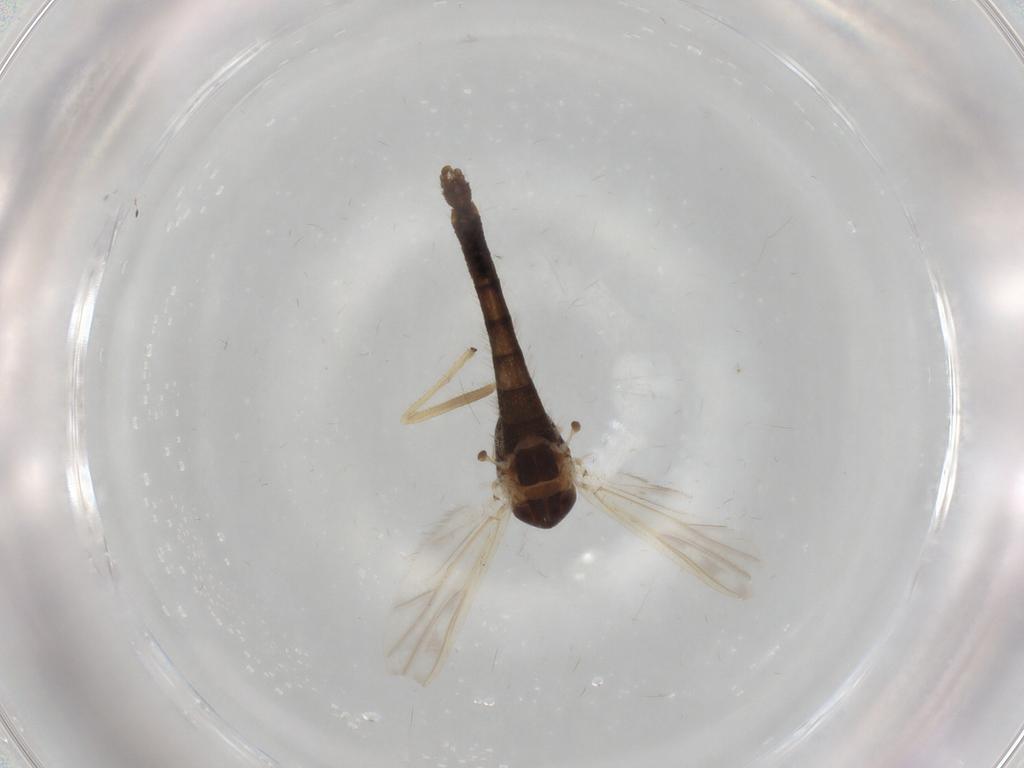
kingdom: Animalia
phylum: Arthropoda
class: Insecta
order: Diptera
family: Chironomidae
